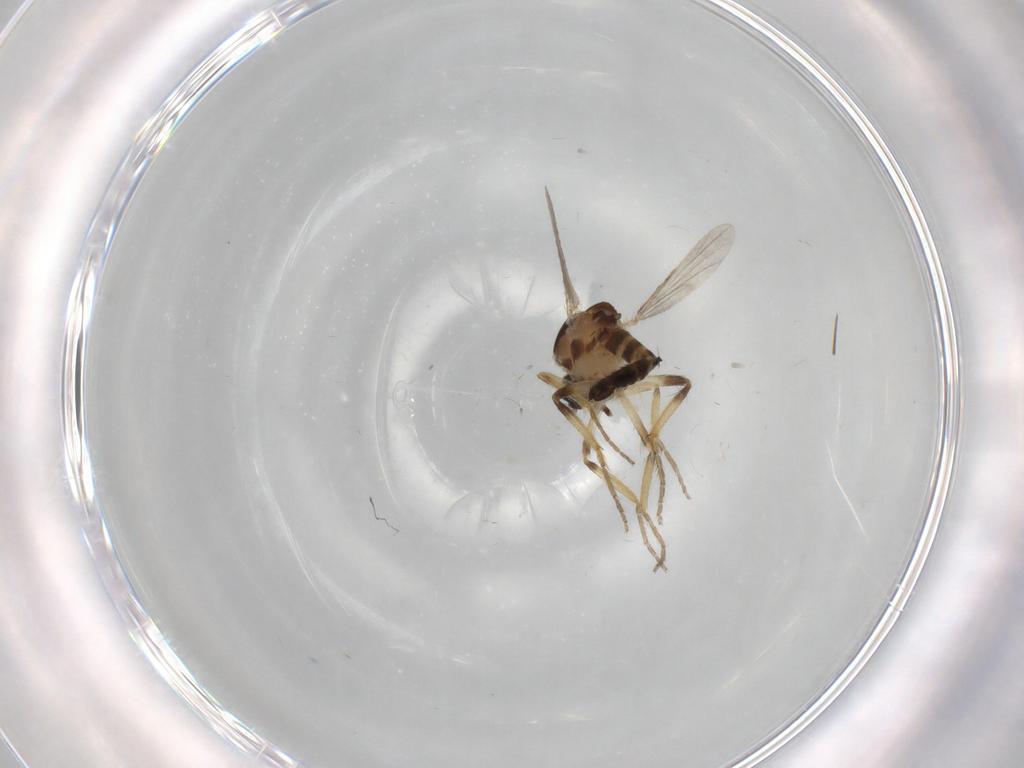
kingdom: Animalia
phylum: Arthropoda
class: Insecta
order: Diptera
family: Ceratopogonidae
